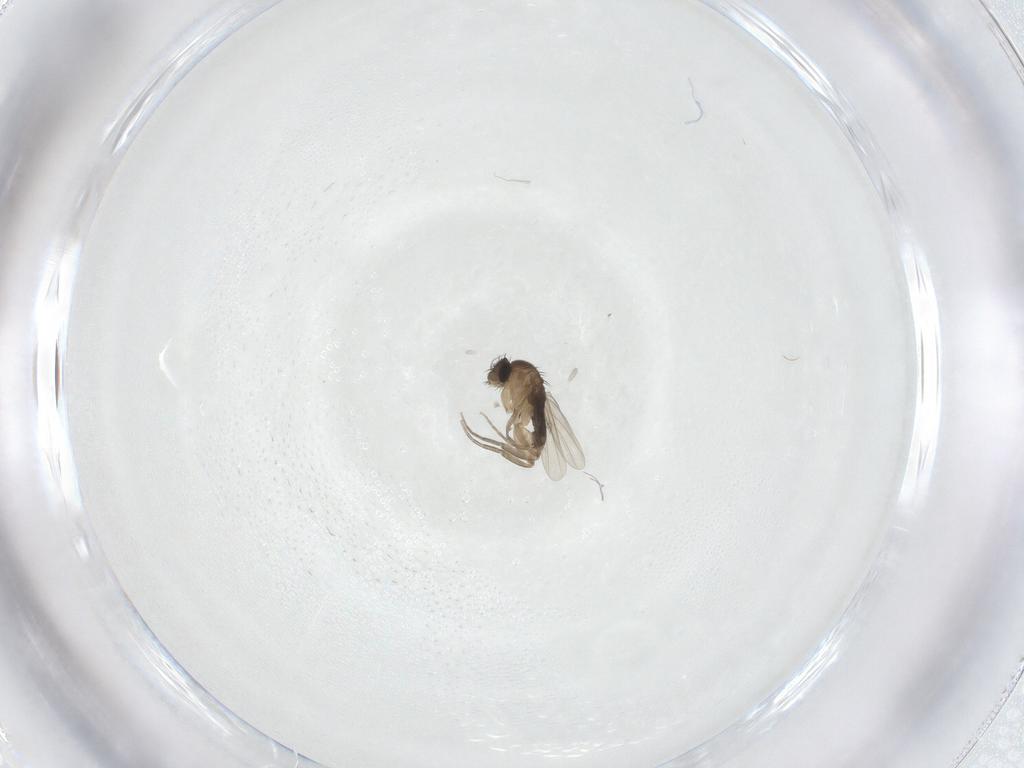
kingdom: Animalia
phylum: Arthropoda
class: Insecta
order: Diptera
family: Phoridae
